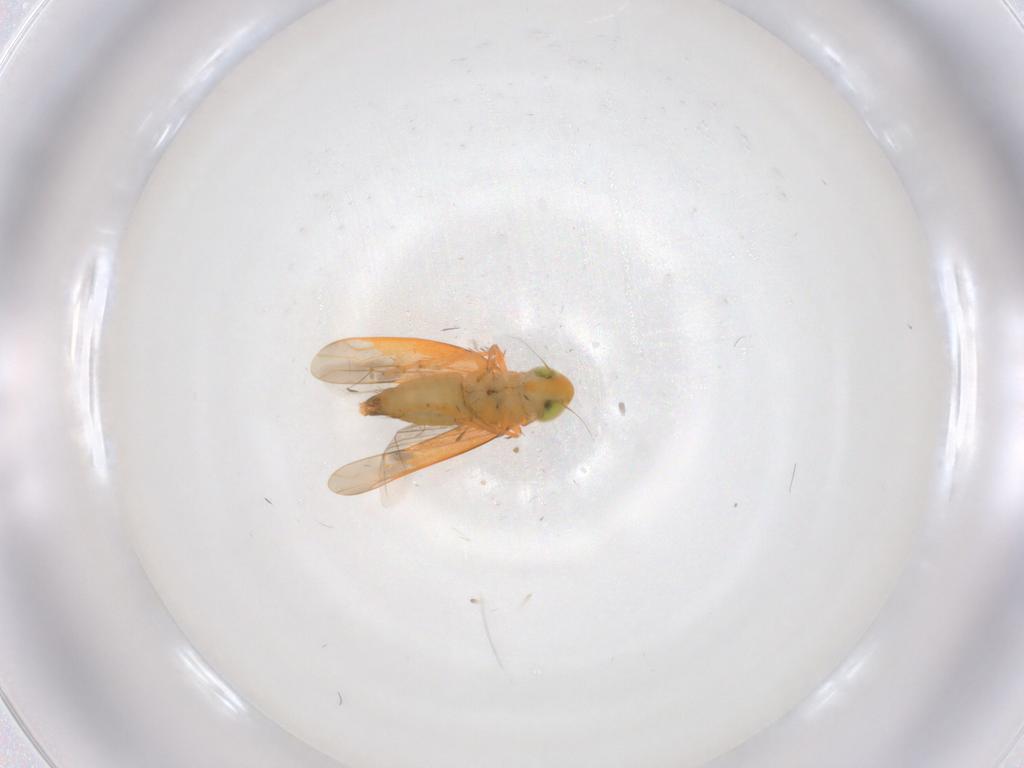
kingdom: Animalia
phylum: Arthropoda
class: Insecta
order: Hemiptera
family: Cicadellidae
